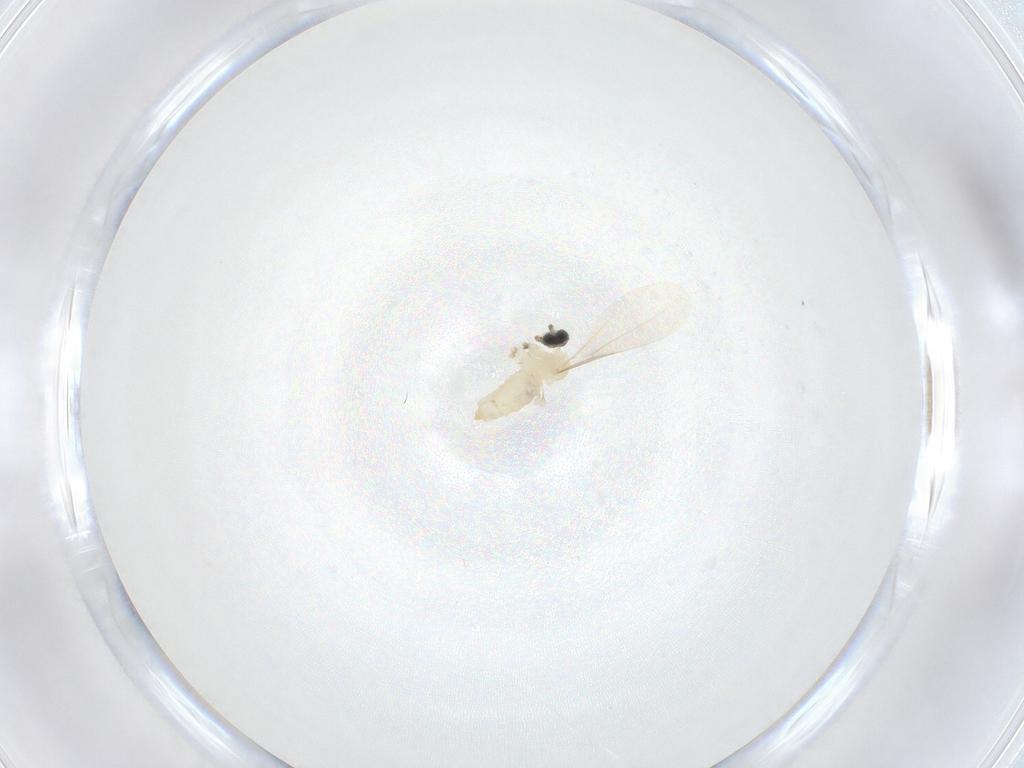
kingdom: Animalia
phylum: Arthropoda
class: Insecta
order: Diptera
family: Cecidomyiidae
